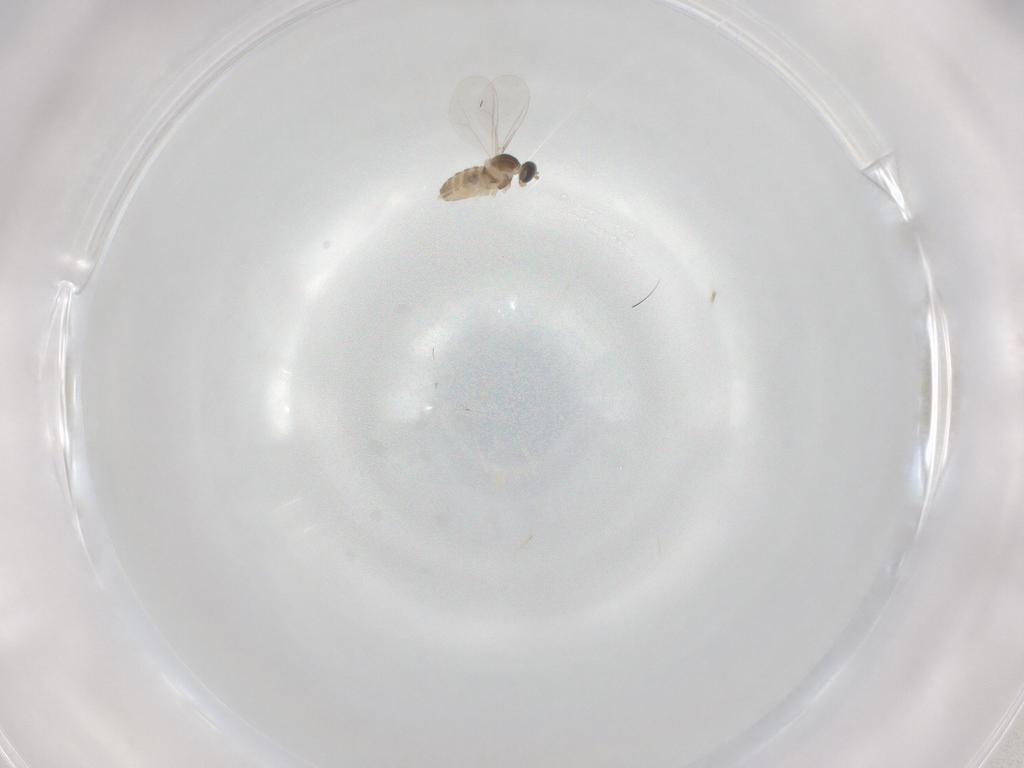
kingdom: Animalia
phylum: Arthropoda
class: Insecta
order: Diptera
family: Cecidomyiidae
